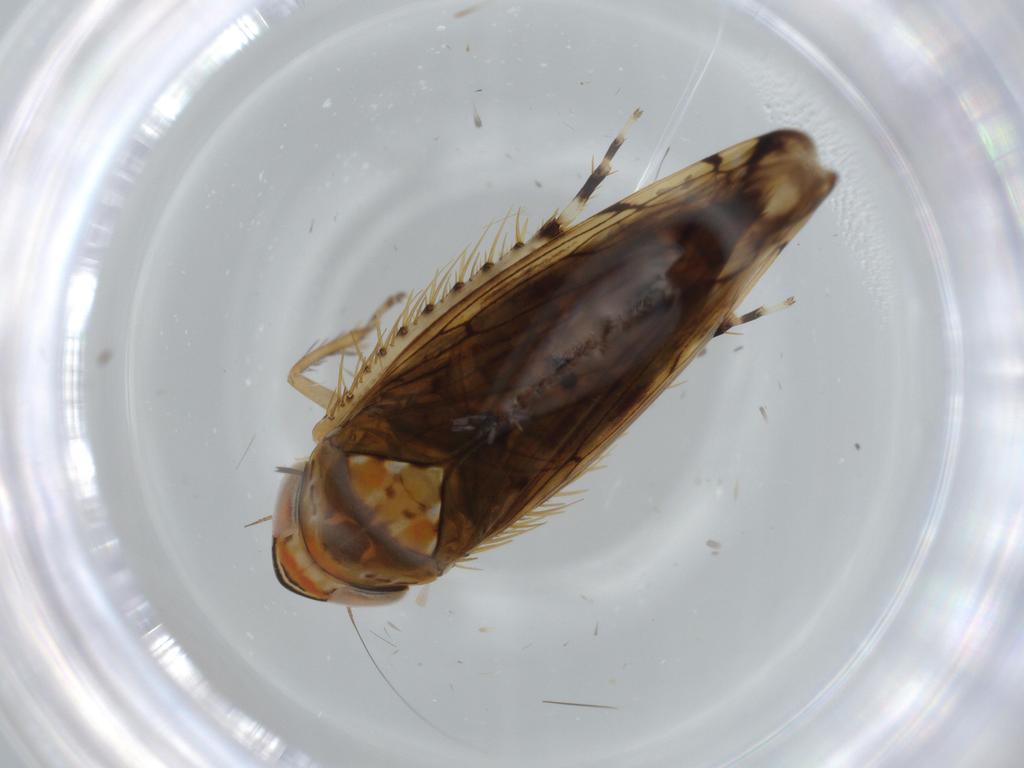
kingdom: Animalia
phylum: Arthropoda
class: Insecta
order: Hemiptera
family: Cicadellidae
